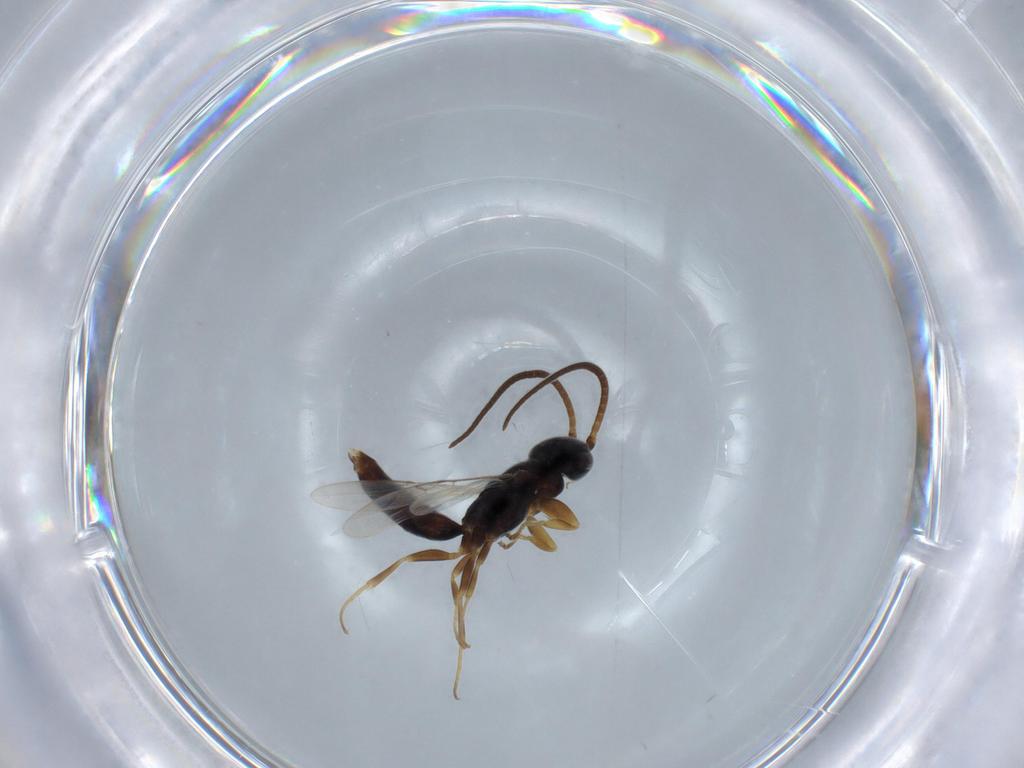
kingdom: Animalia
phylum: Arthropoda
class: Insecta
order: Hymenoptera
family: Sclerogibbidae
